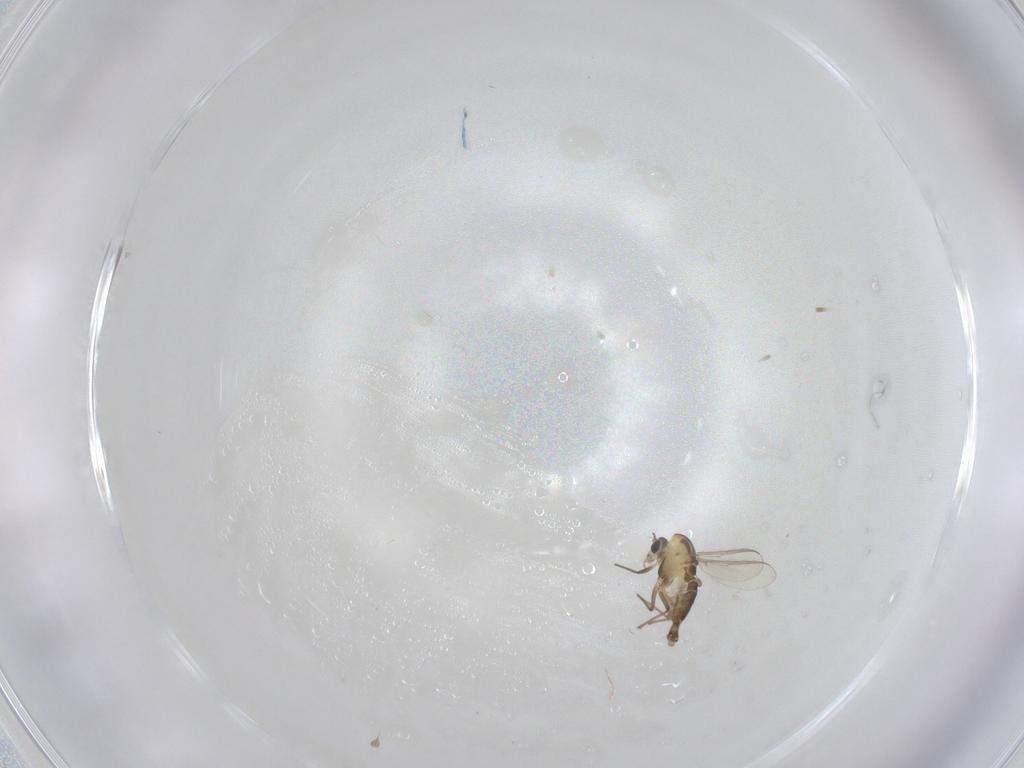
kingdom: Animalia
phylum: Arthropoda
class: Insecta
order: Diptera
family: Chironomidae
